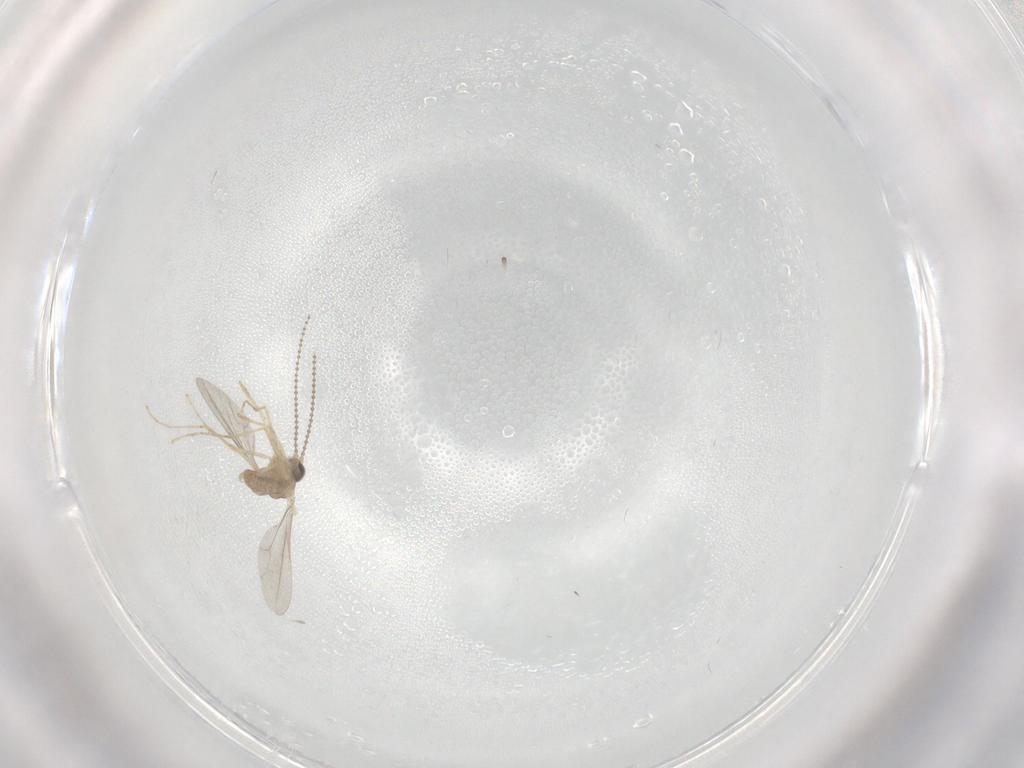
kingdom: Animalia
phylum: Arthropoda
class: Insecta
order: Diptera
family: Cecidomyiidae
